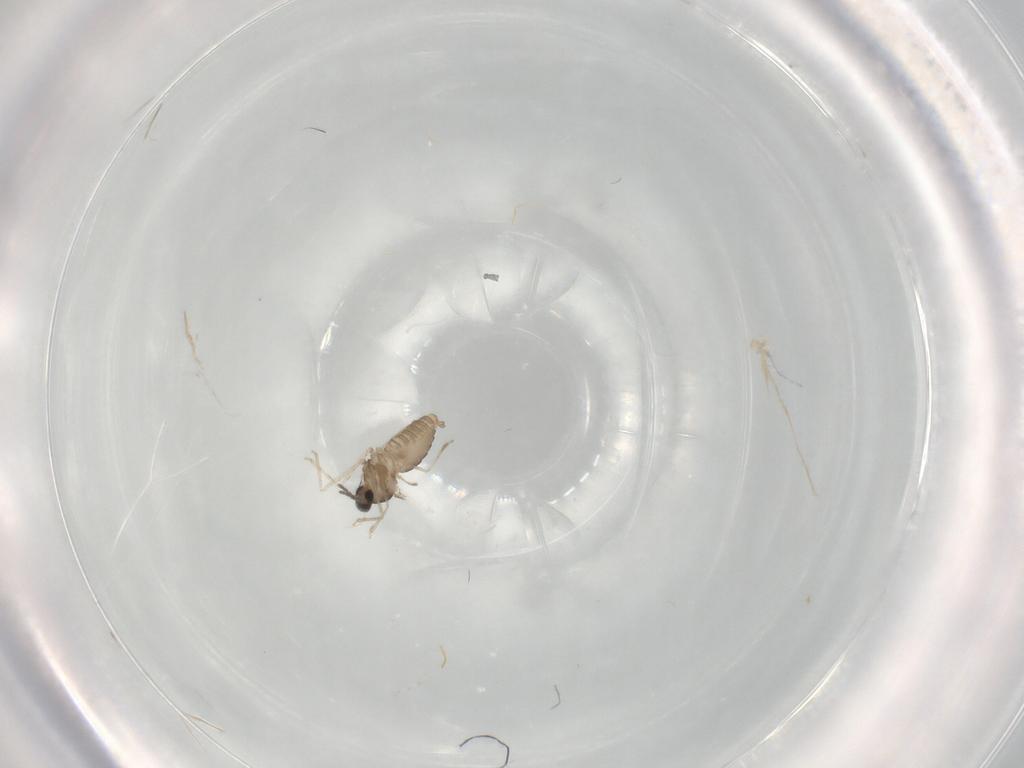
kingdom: Animalia
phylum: Arthropoda
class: Insecta
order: Diptera
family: Cecidomyiidae
